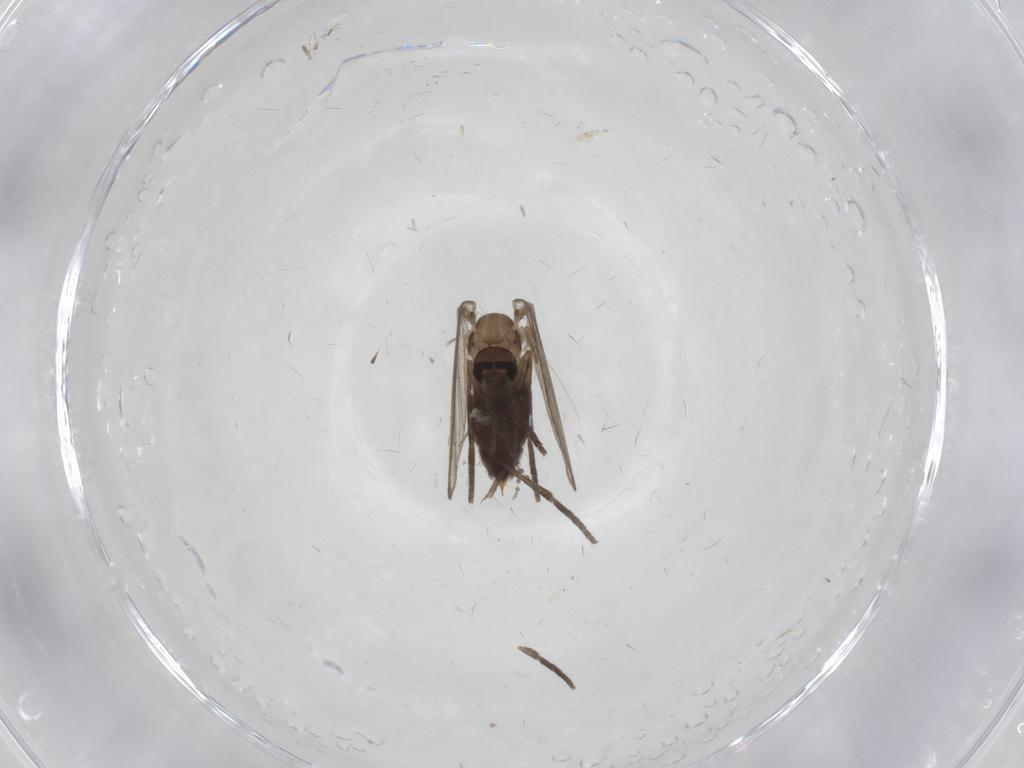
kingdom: Animalia
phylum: Arthropoda
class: Insecta
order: Diptera
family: Psychodidae
